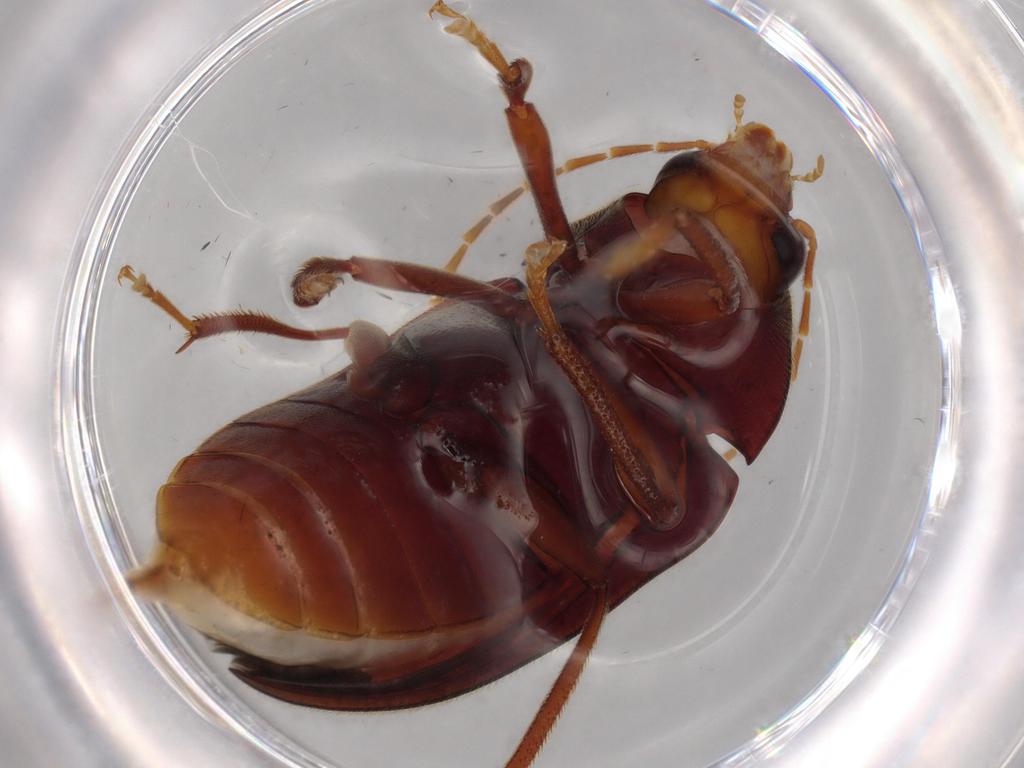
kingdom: Animalia
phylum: Arthropoda
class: Insecta
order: Coleoptera
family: Ptilodactylidae
